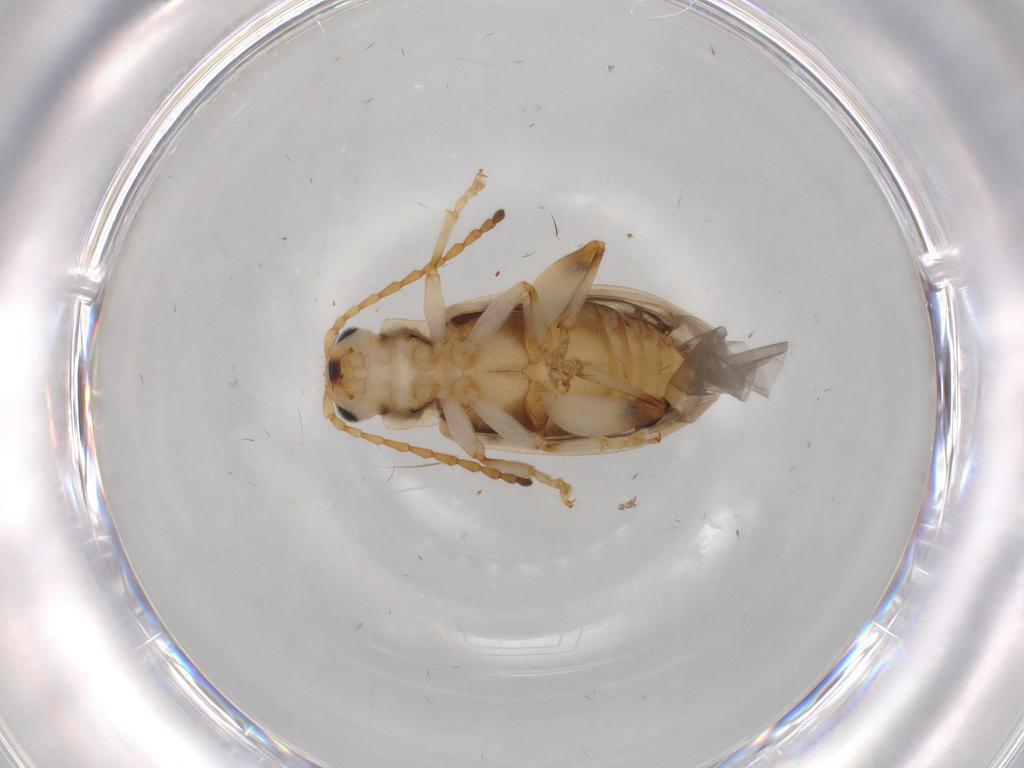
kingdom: Animalia
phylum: Arthropoda
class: Insecta
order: Coleoptera
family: Chrysomelidae
